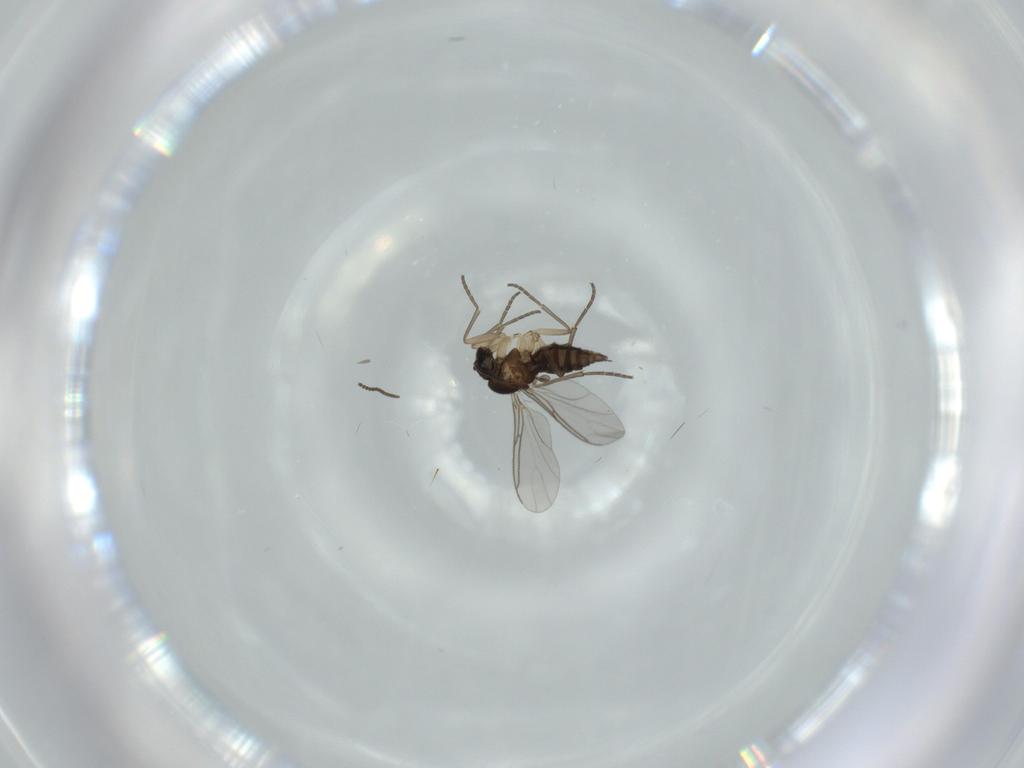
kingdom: Animalia
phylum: Arthropoda
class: Insecta
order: Diptera
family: Sciaridae
